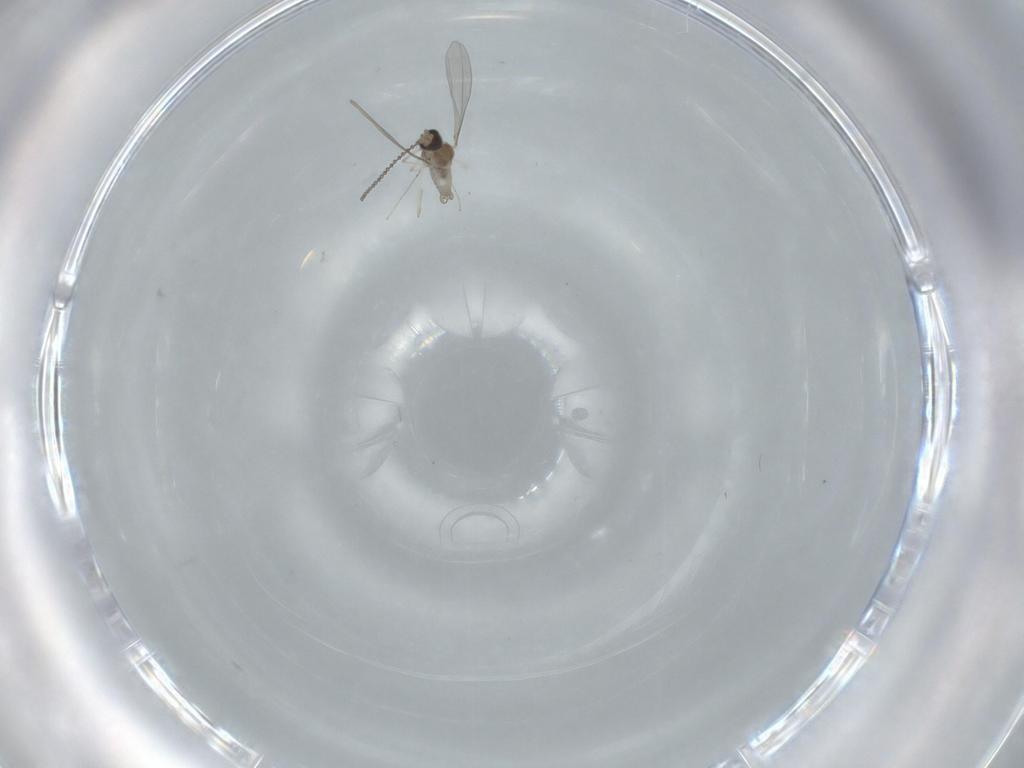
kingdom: Animalia
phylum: Arthropoda
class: Insecta
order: Diptera
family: Cecidomyiidae
